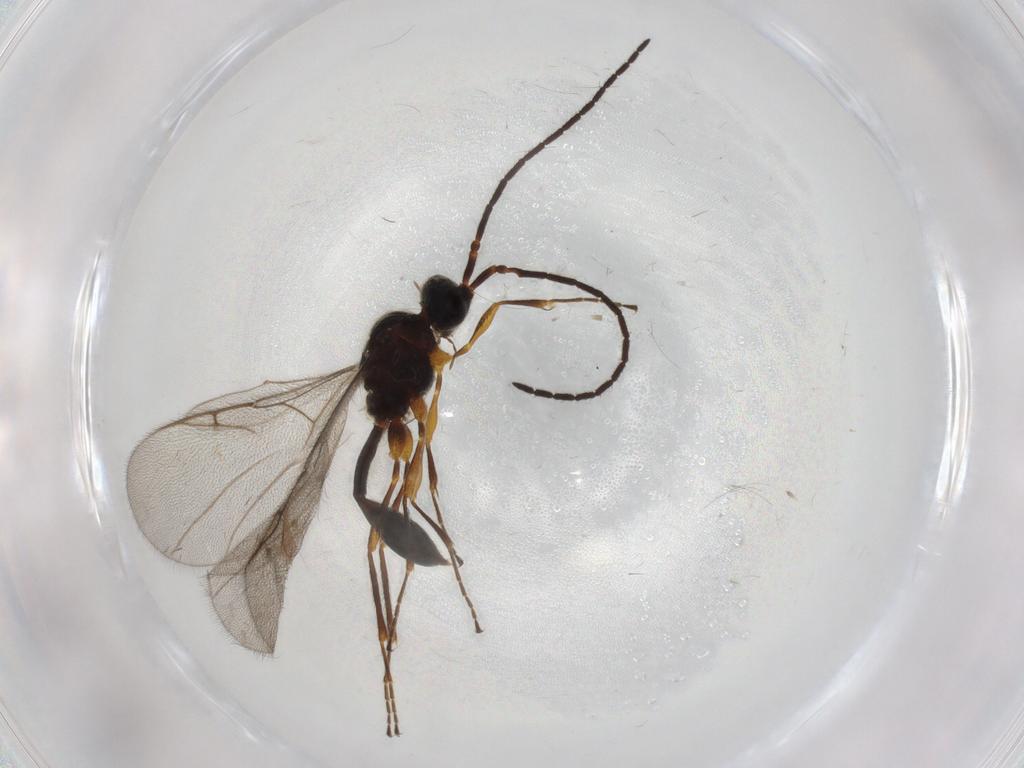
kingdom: Animalia
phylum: Arthropoda
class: Insecta
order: Hymenoptera
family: Diapriidae
